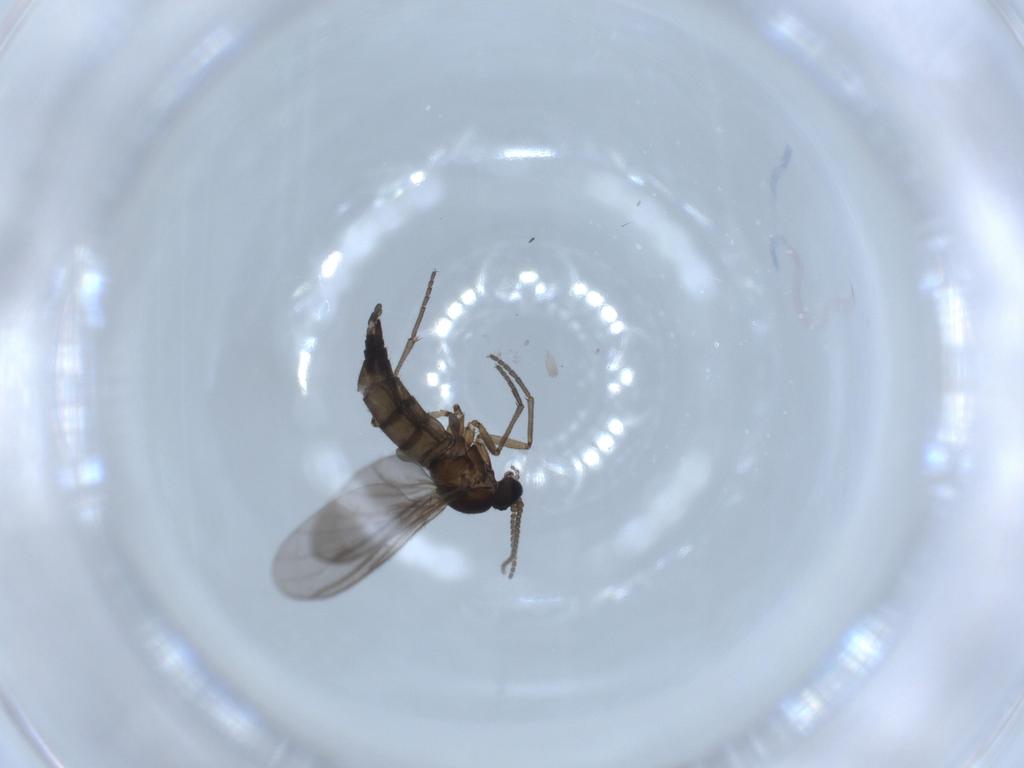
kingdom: Animalia
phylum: Arthropoda
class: Insecta
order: Diptera
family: Sciaridae
